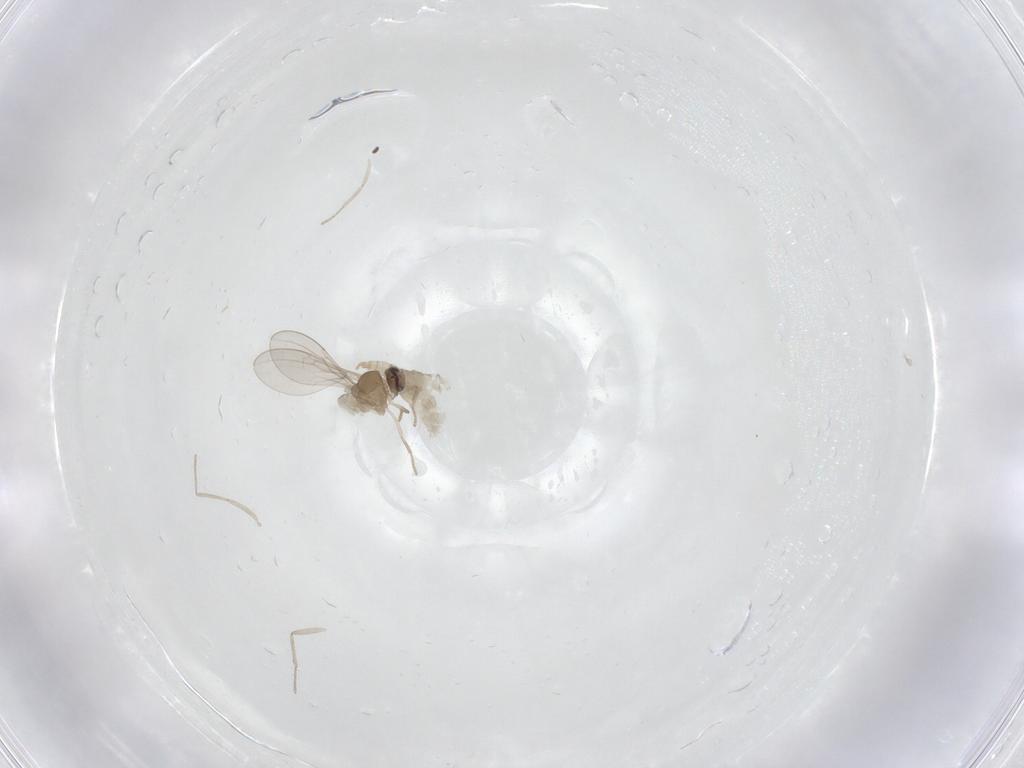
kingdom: Animalia
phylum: Arthropoda
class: Insecta
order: Diptera
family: Cecidomyiidae
